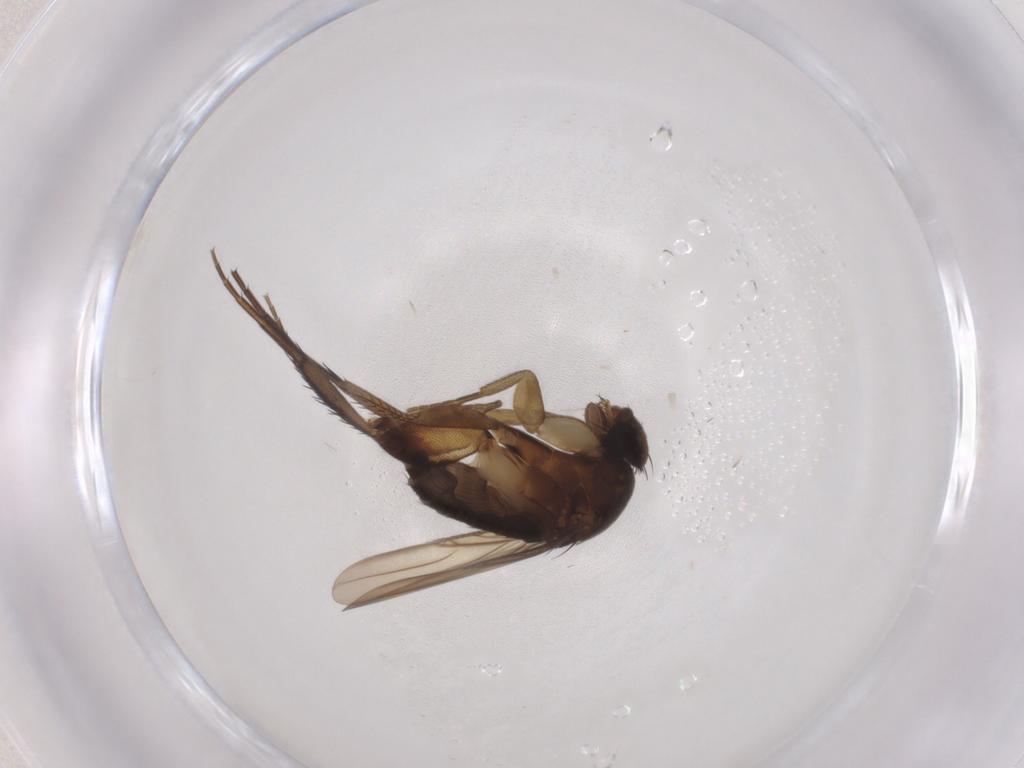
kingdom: Animalia
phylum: Arthropoda
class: Insecta
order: Diptera
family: Phoridae
